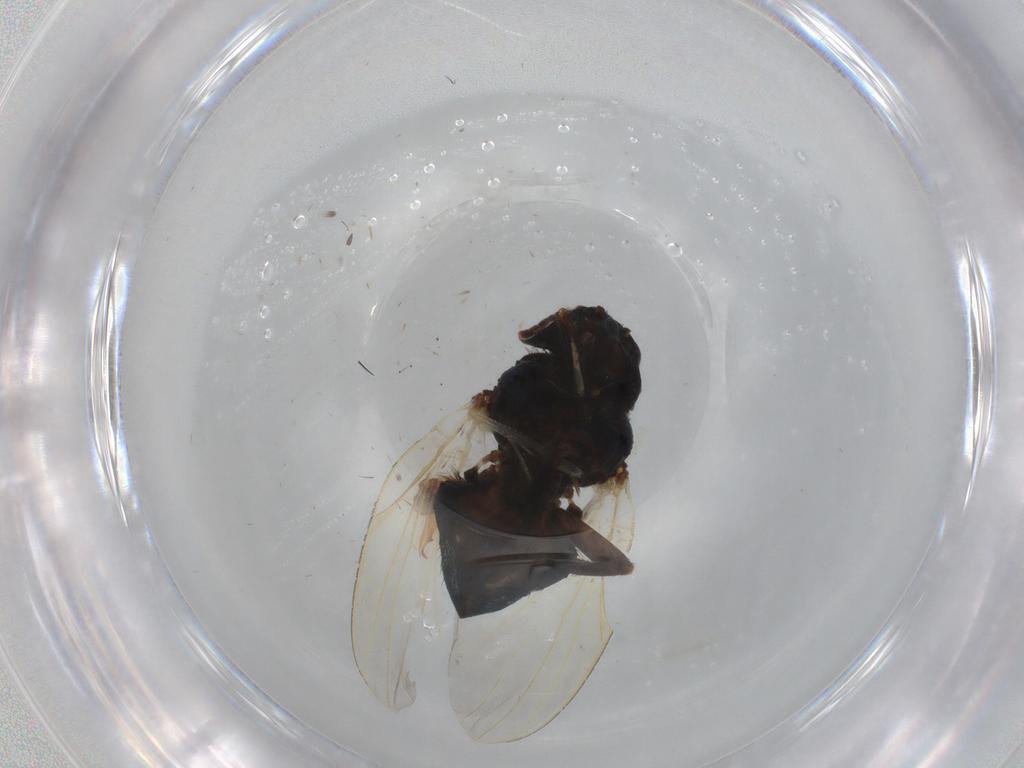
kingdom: Animalia
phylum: Arthropoda
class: Insecta
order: Diptera
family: Lonchaeidae
